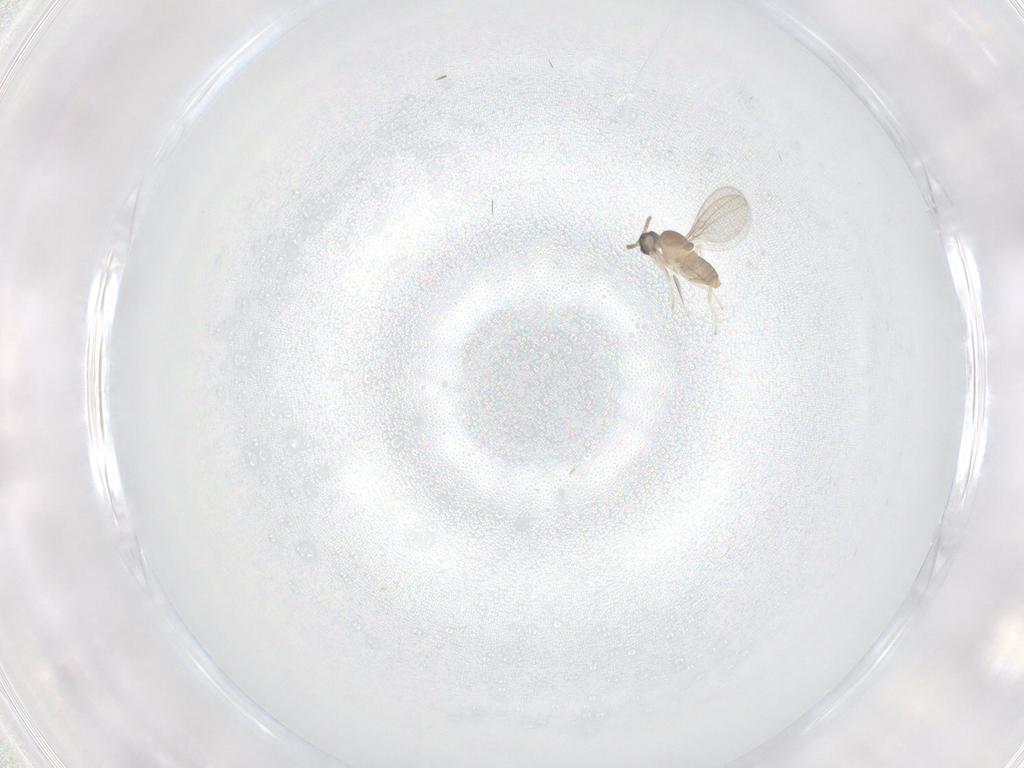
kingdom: Animalia
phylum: Arthropoda
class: Insecta
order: Diptera
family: Cecidomyiidae
